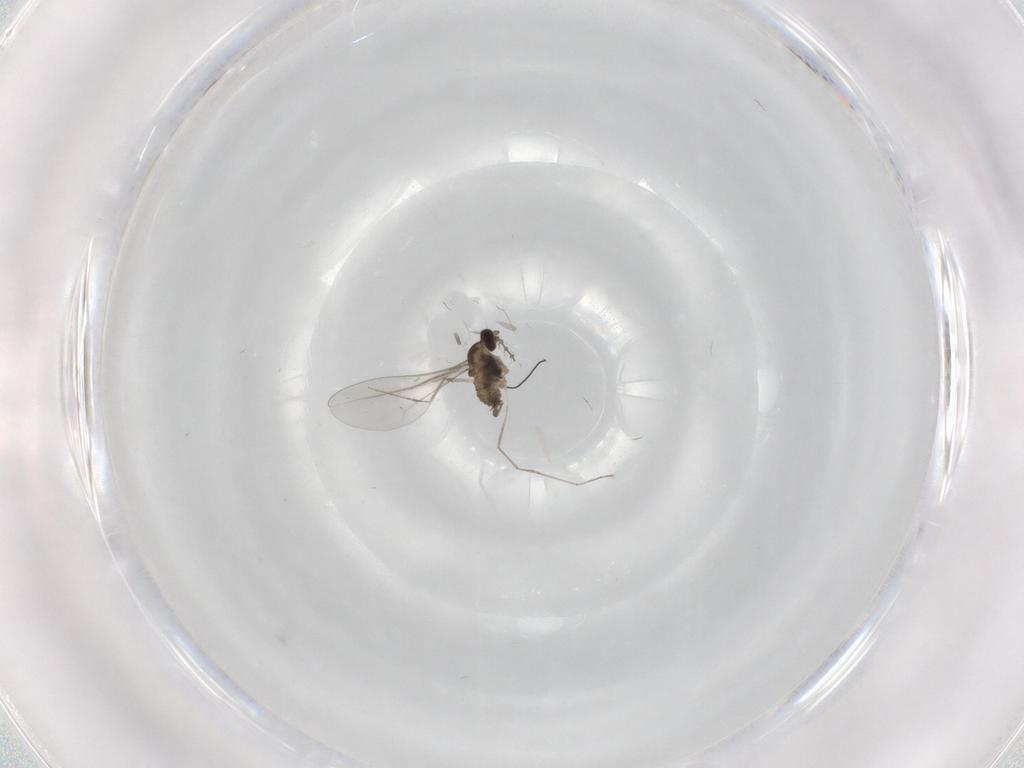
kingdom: Animalia
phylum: Arthropoda
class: Insecta
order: Diptera
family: Cecidomyiidae
